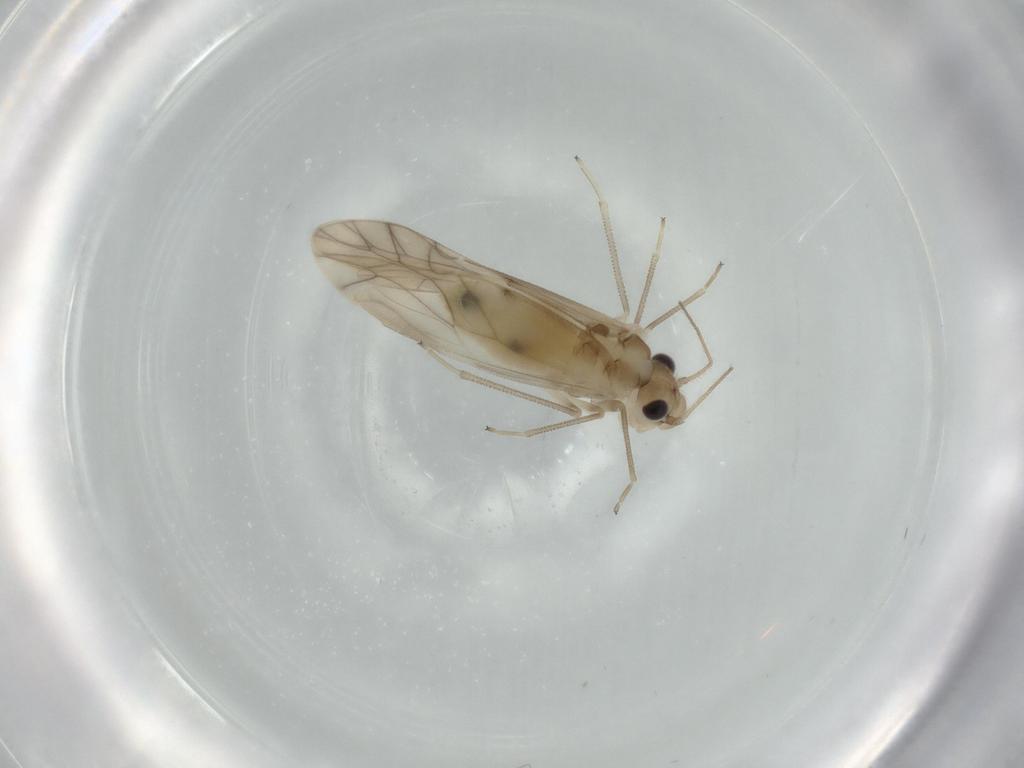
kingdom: Animalia
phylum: Arthropoda
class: Insecta
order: Psocodea
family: Caeciliusidae
